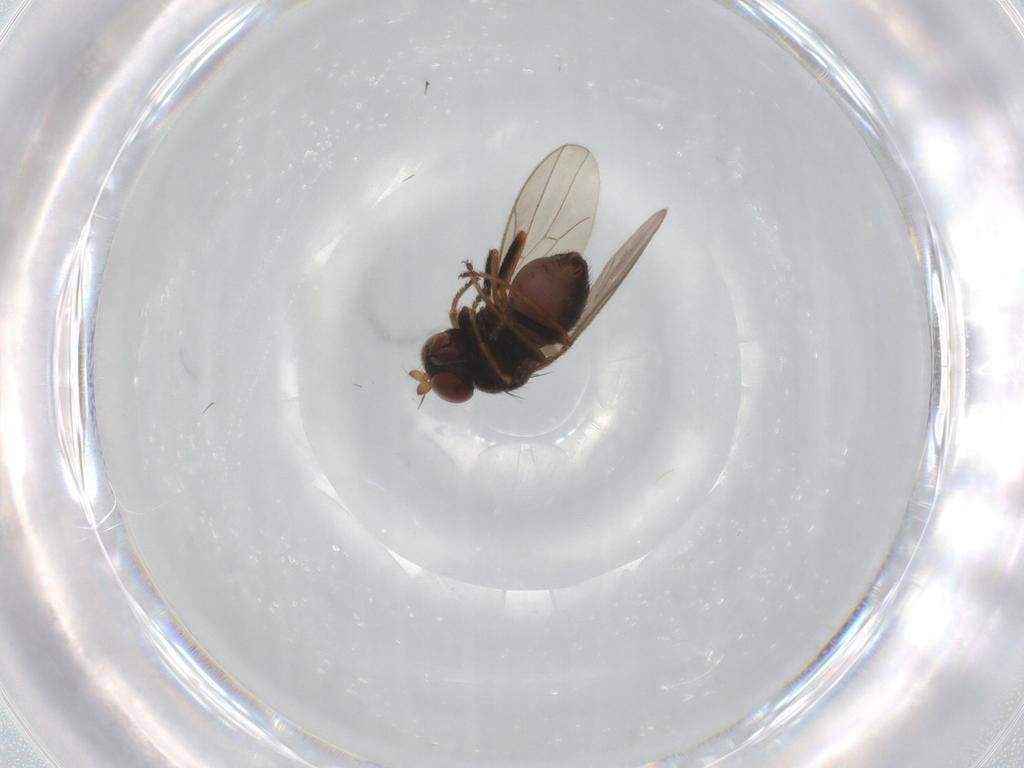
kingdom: Animalia
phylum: Arthropoda
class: Insecta
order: Diptera
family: Ephydridae
